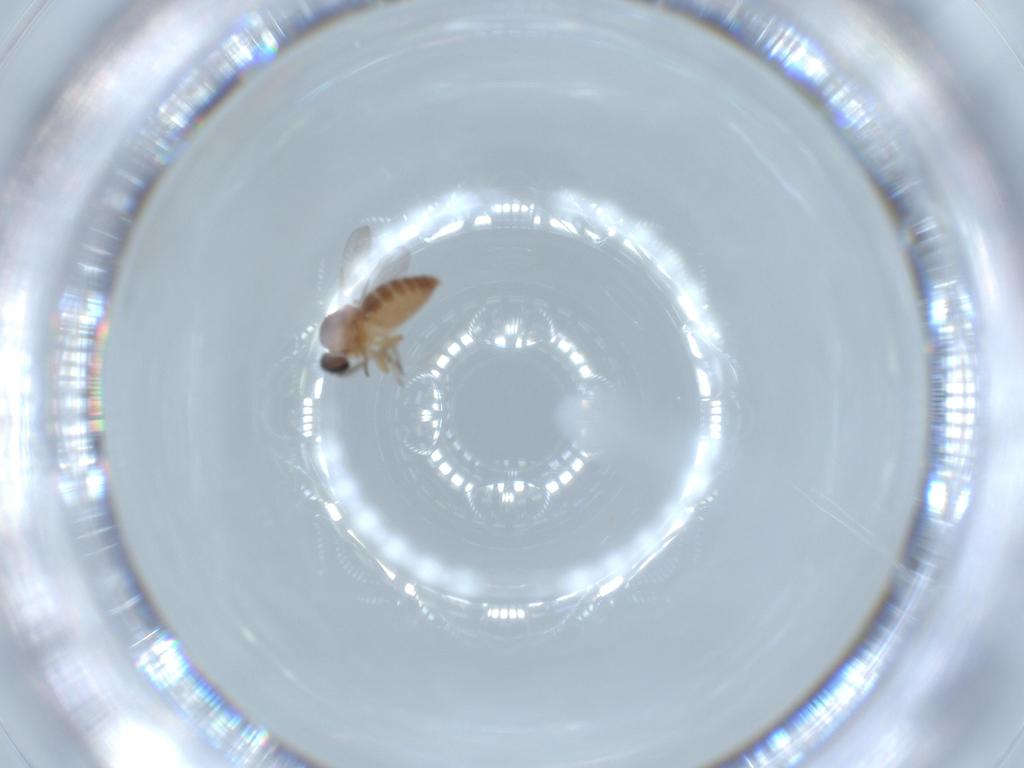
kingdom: Animalia
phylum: Arthropoda
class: Insecta
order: Diptera
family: Ceratopogonidae
